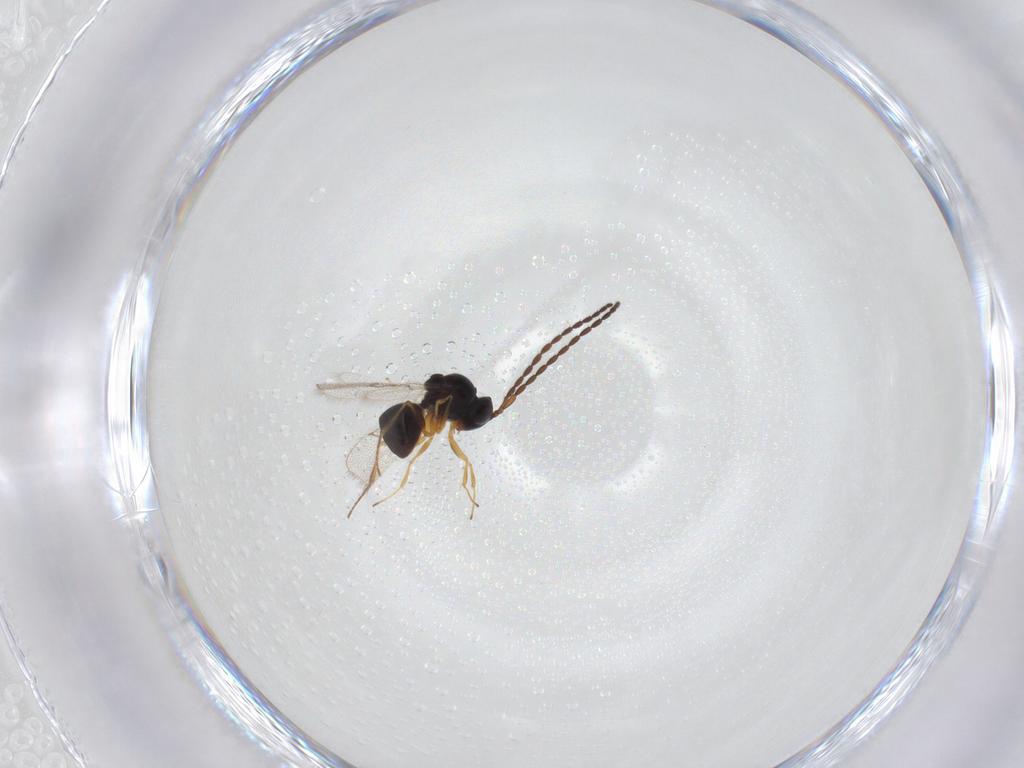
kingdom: Animalia
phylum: Arthropoda
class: Insecta
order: Hymenoptera
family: Figitidae
